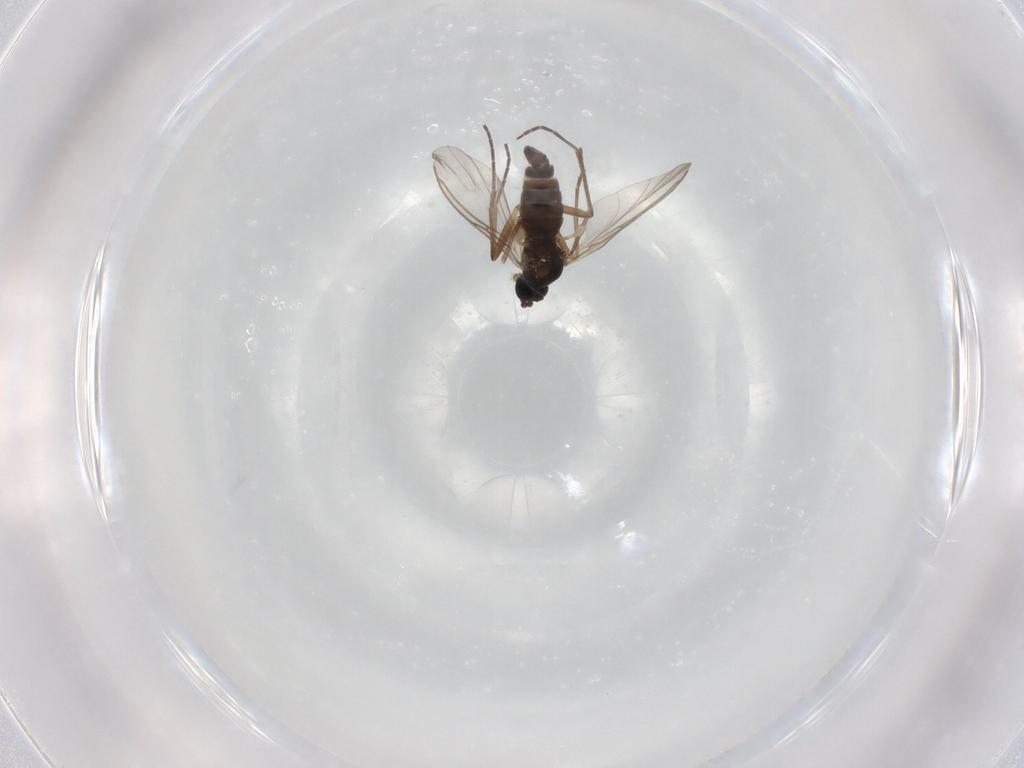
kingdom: Animalia
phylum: Arthropoda
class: Insecta
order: Diptera
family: Sciaridae
